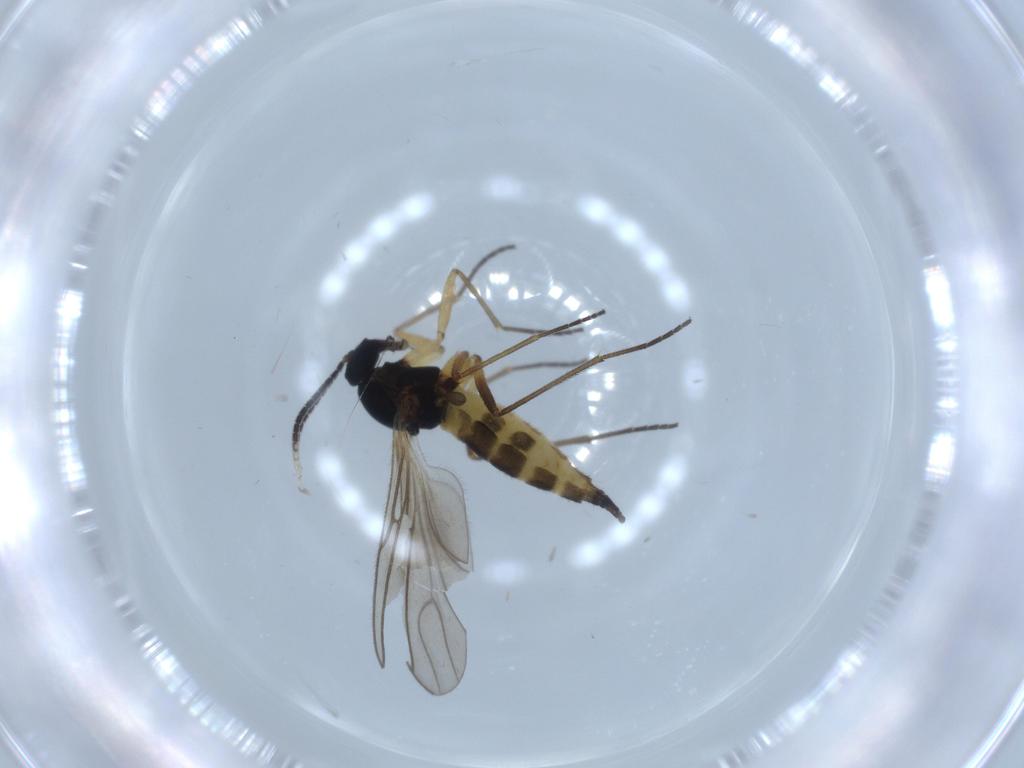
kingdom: Animalia
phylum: Arthropoda
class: Insecta
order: Diptera
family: Sciaridae
